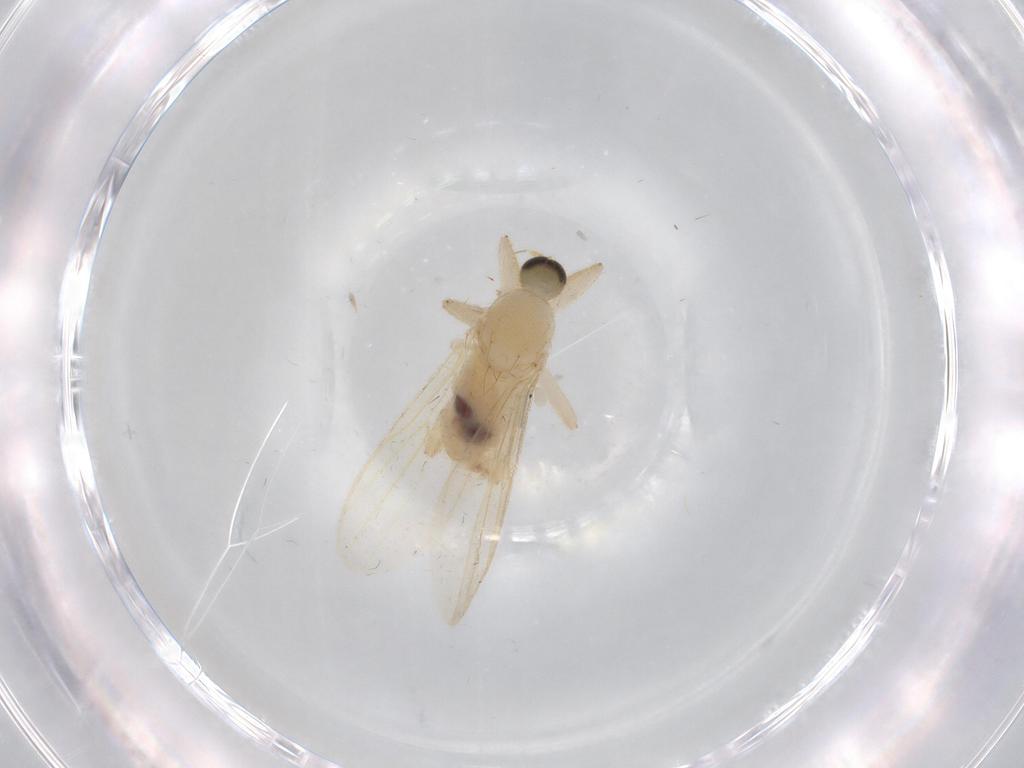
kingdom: Animalia
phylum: Arthropoda
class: Insecta
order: Diptera
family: Hybotidae
